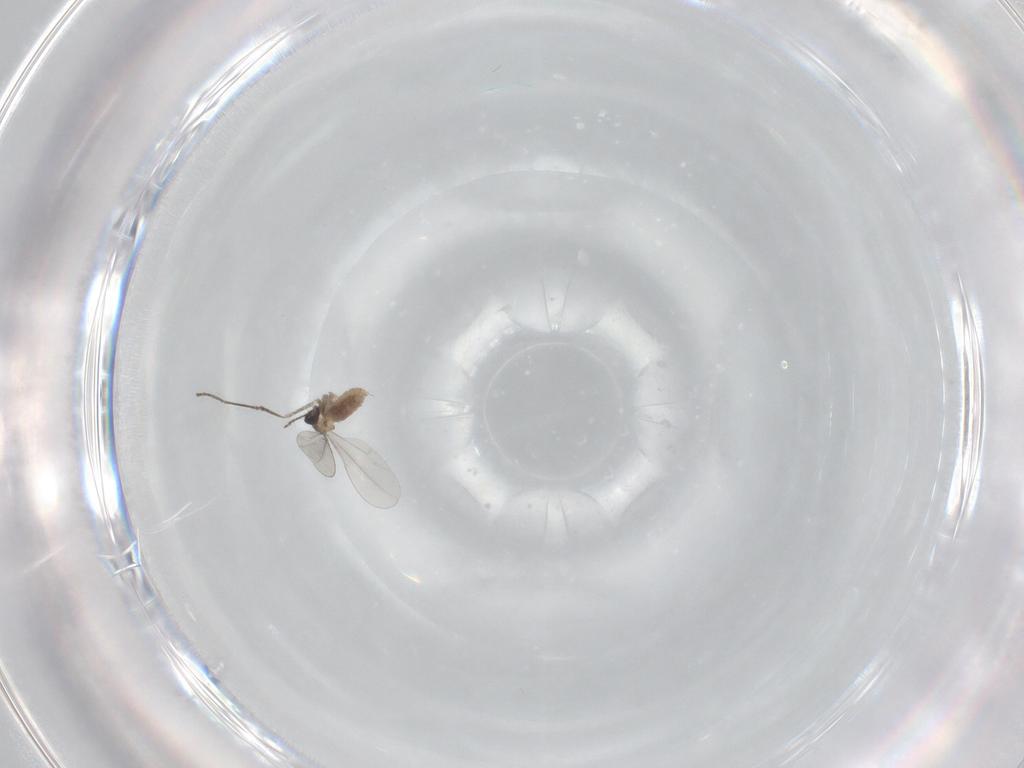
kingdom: Animalia
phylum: Arthropoda
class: Insecta
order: Diptera
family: Cecidomyiidae
